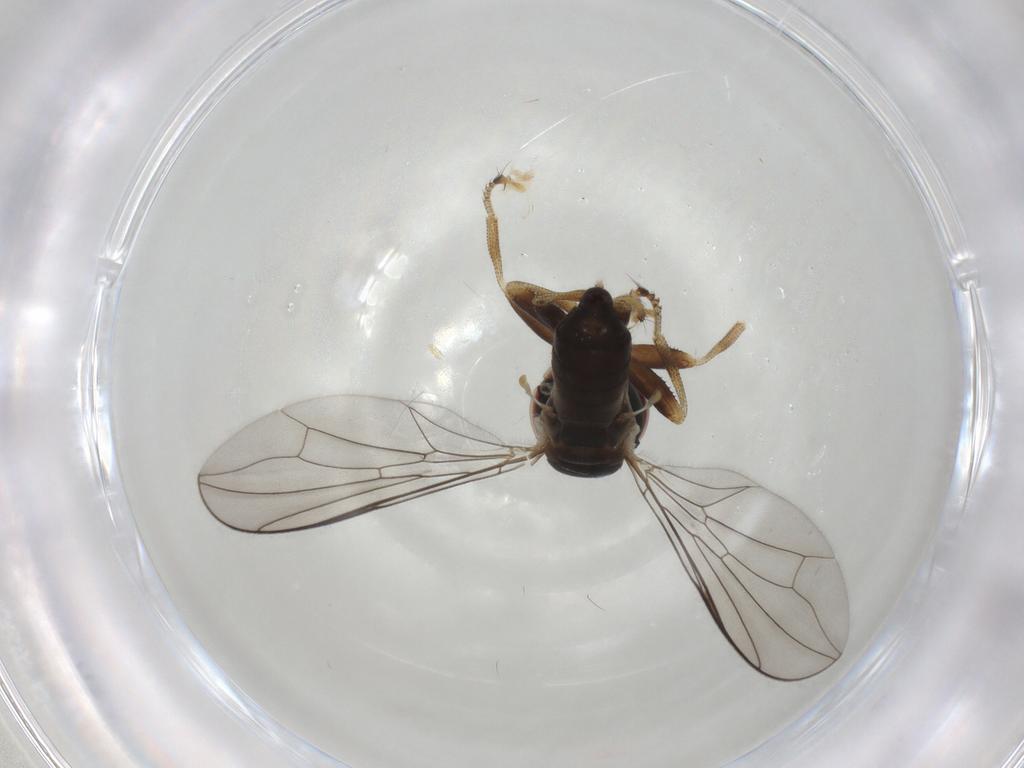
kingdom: Animalia
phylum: Arthropoda
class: Insecta
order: Diptera
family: Pipunculidae
